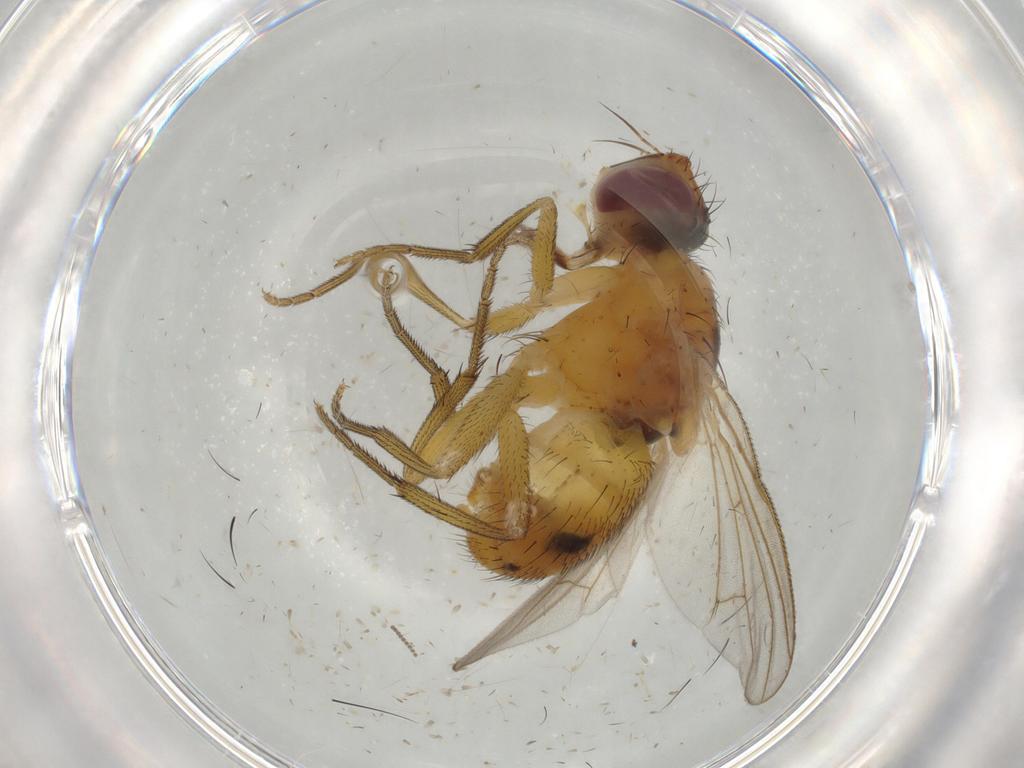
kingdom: Animalia
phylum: Arthropoda
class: Insecta
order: Diptera
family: Muscidae
